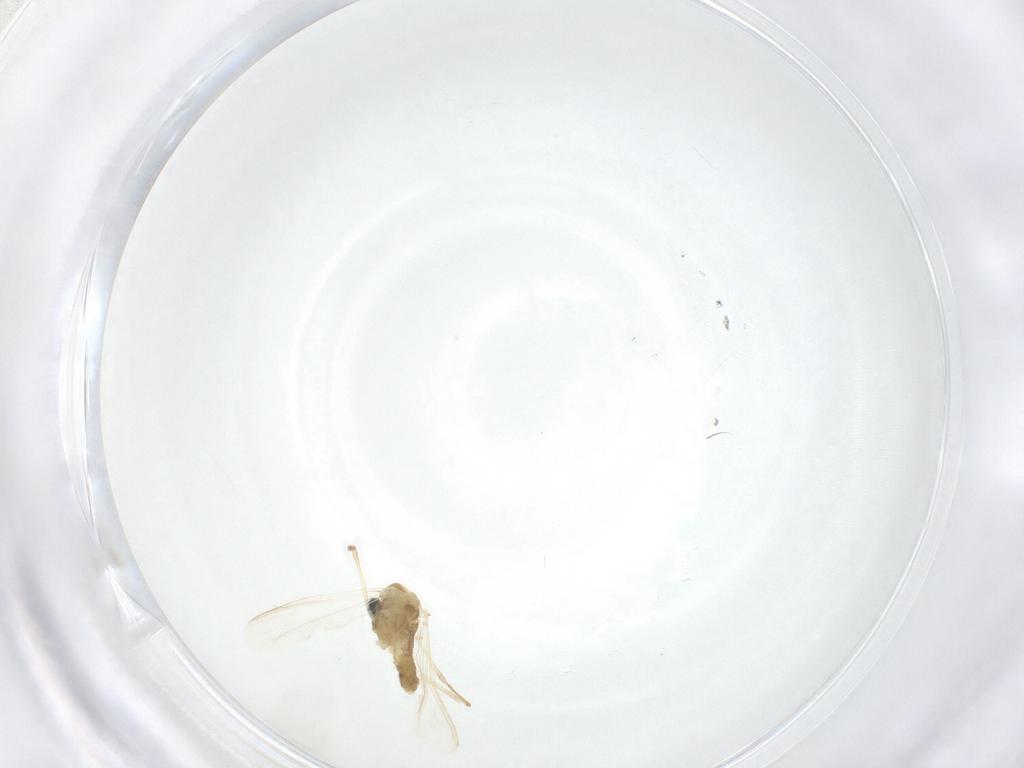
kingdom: Animalia
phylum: Arthropoda
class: Insecta
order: Diptera
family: Chironomidae
